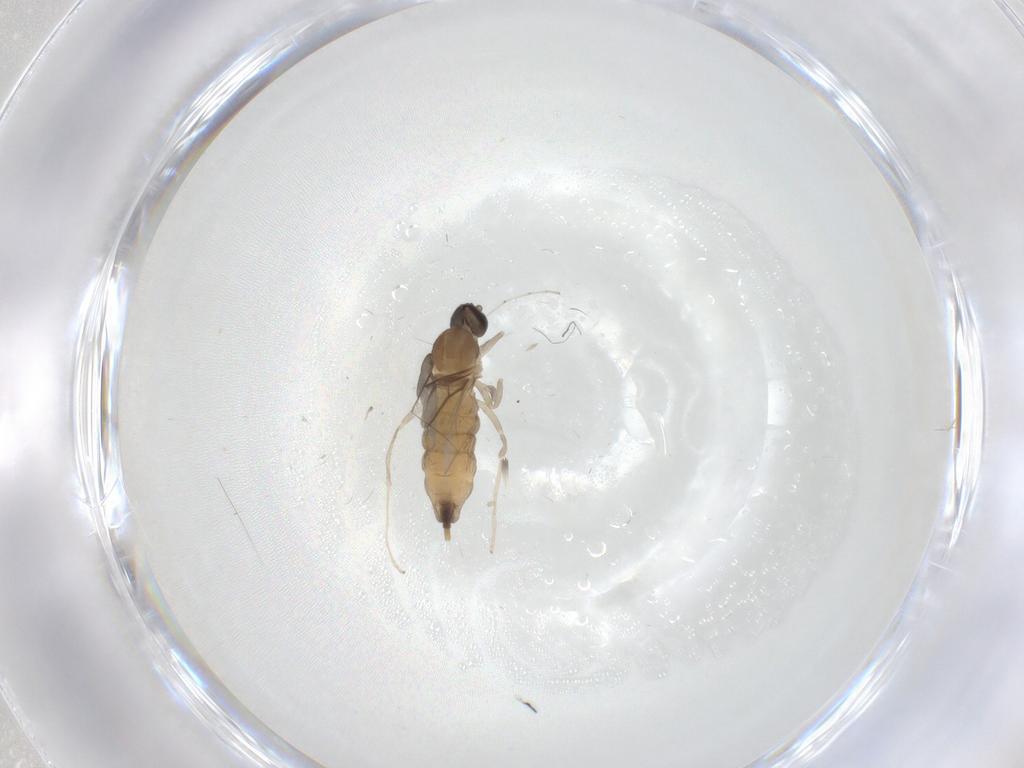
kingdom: Animalia
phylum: Arthropoda
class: Insecta
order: Diptera
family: Cecidomyiidae
